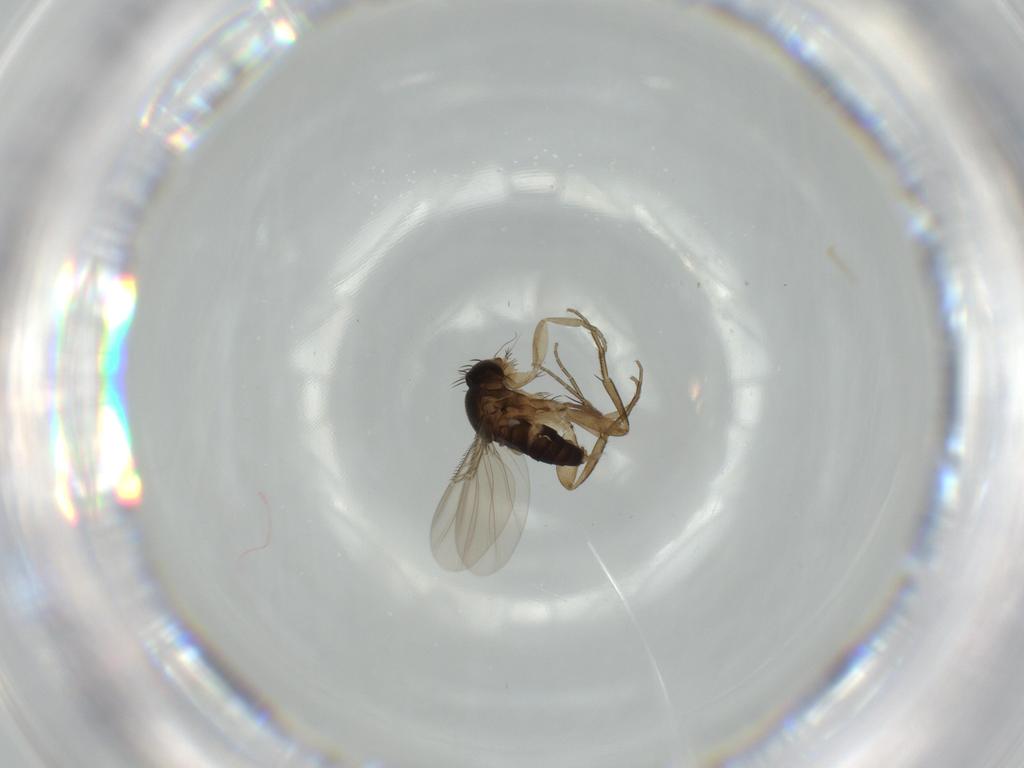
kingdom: Animalia
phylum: Arthropoda
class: Insecta
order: Diptera
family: Phoridae
